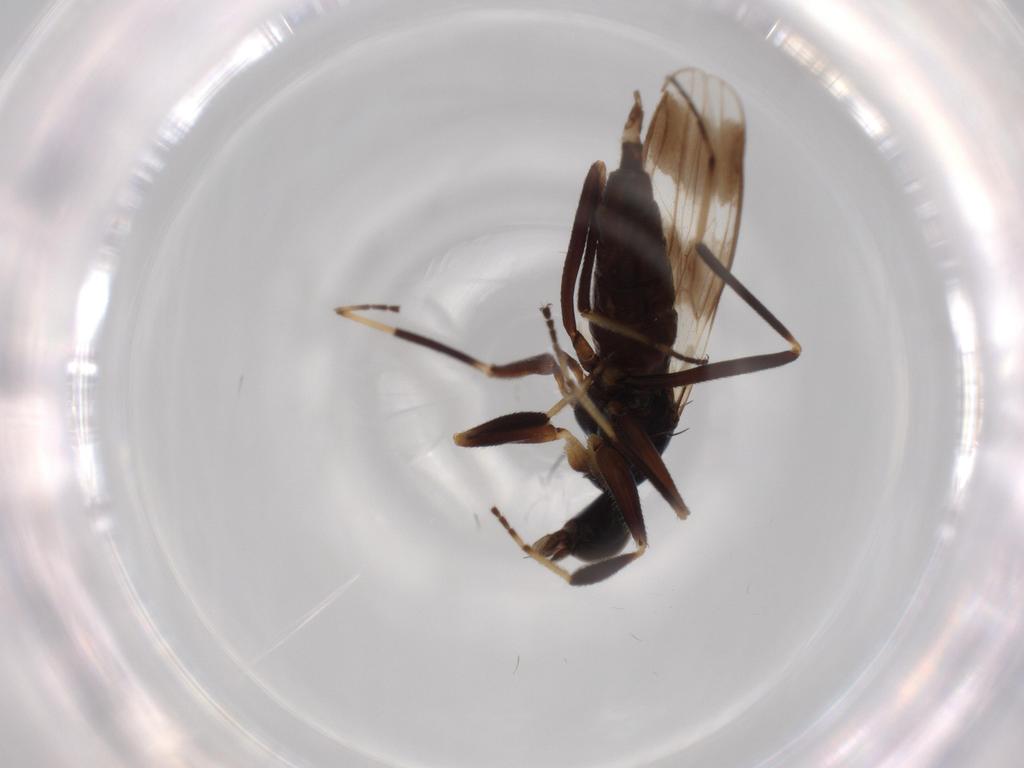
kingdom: Animalia
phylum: Arthropoda
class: Insecta
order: Diptera
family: Hybotidae
